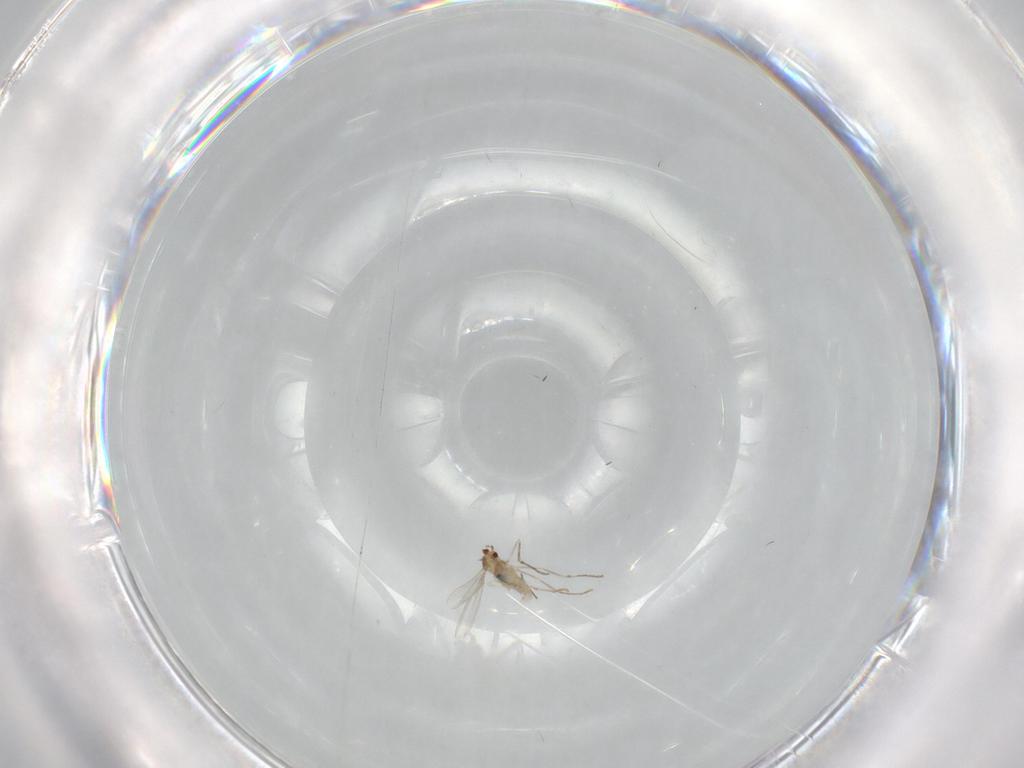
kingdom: Animalia
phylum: Arthropoda
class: Insecta
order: Diptera
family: Cecidomyiidae
